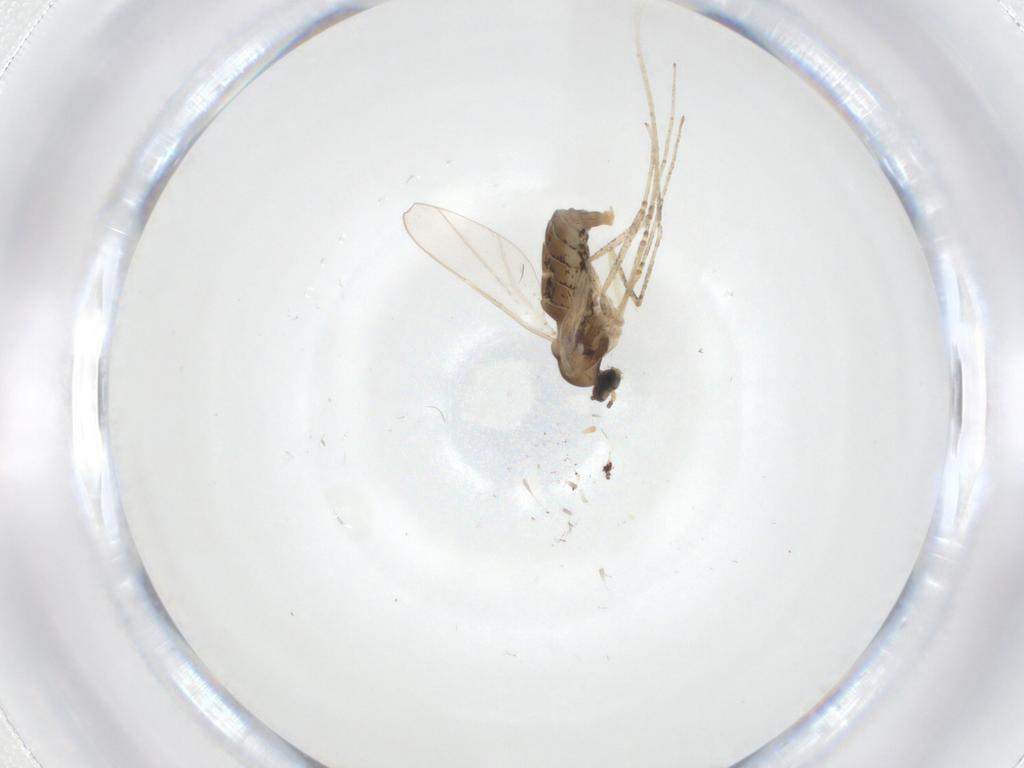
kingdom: Animalia
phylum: Arthropoda
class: Insecta
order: Diptera
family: Cecidomyiidae
